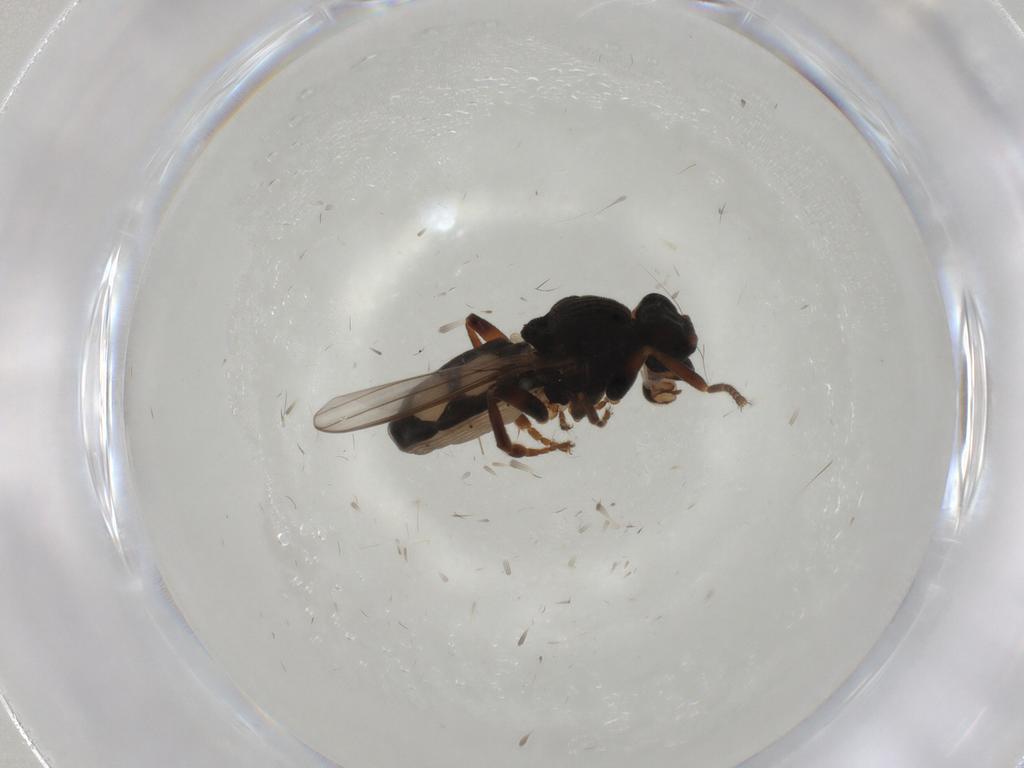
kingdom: Animalia
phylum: Arthropoda
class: Insecta
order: Diptera
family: Sphaeroceridae
